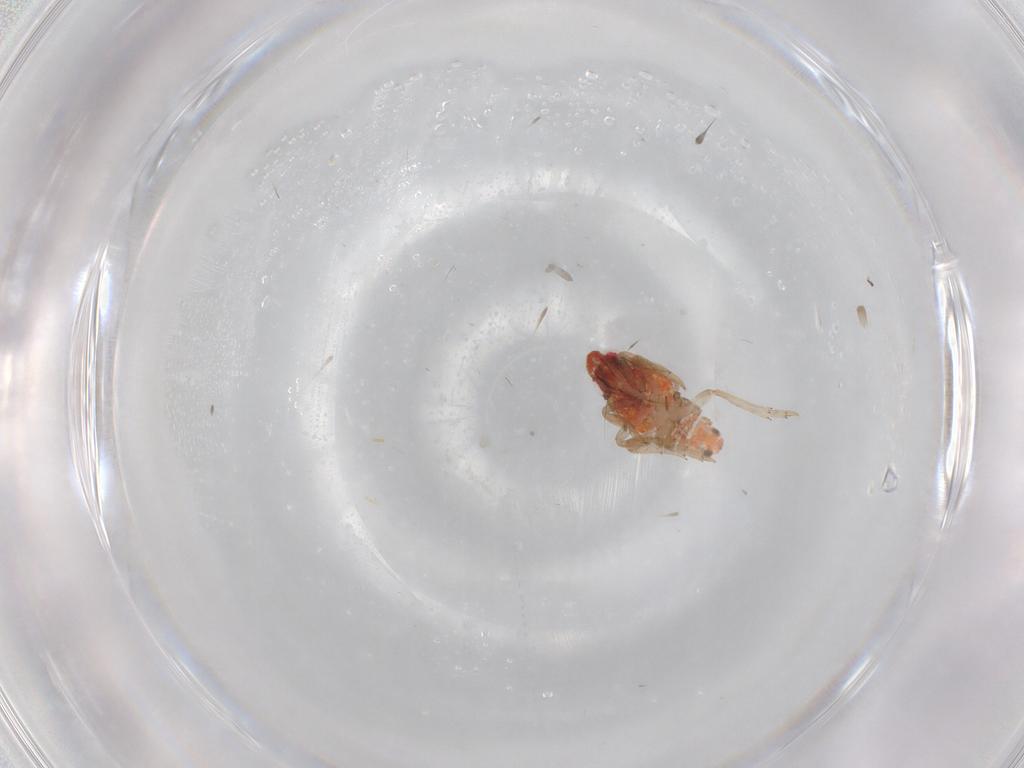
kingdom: Animalia
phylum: Arthropoda
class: Insecta
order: Hemiptera
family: Issidae
